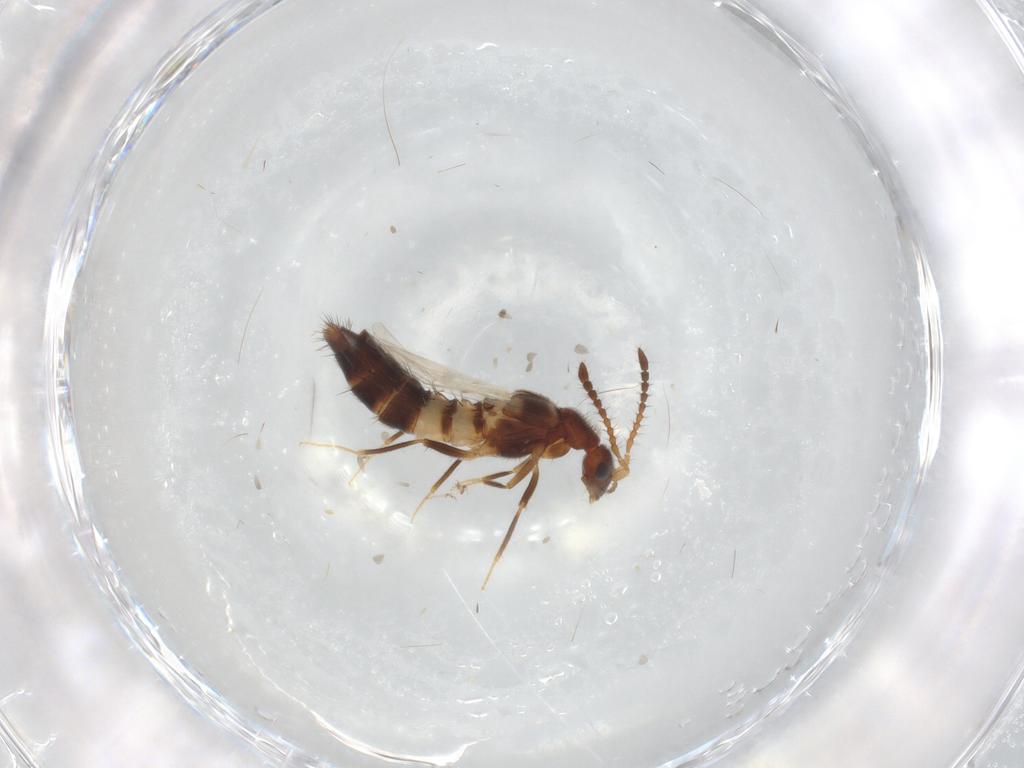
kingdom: Animalia
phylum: Arthropoda
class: Insecta
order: Coleoptera
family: Staphylinidae
